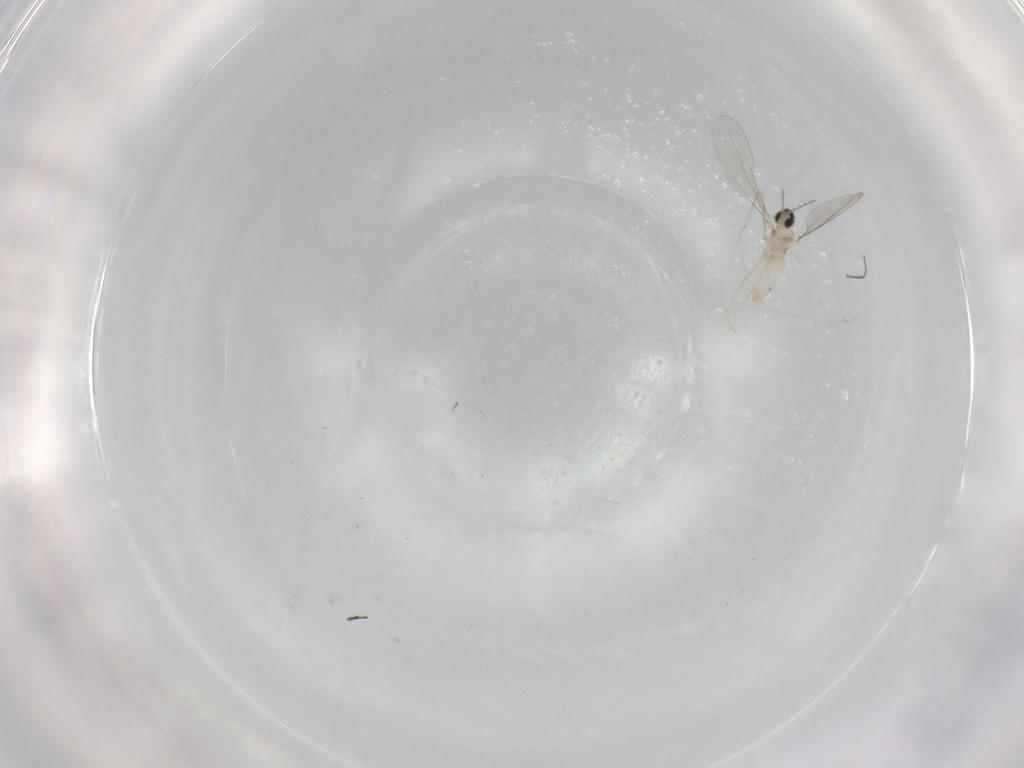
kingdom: Animalia
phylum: Arthropoda
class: Insecta
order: Diptera
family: Cecidomyiidae
